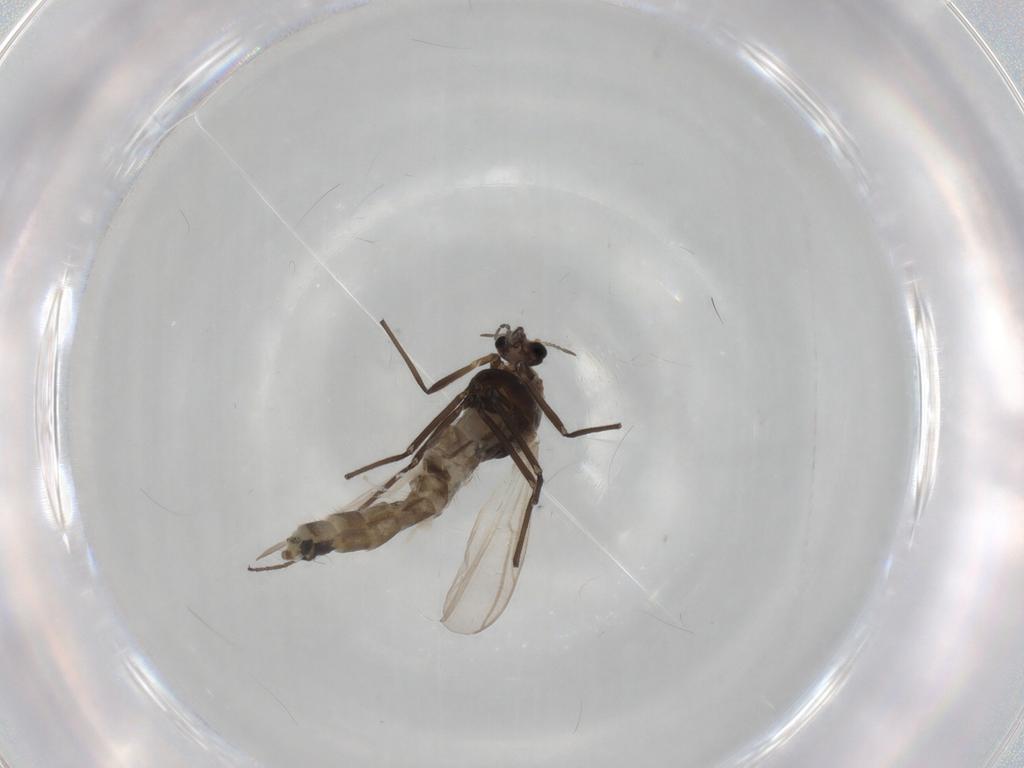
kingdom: Animalia
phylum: Arthropoda
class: Insecta
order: Diptera
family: Chironomidae
